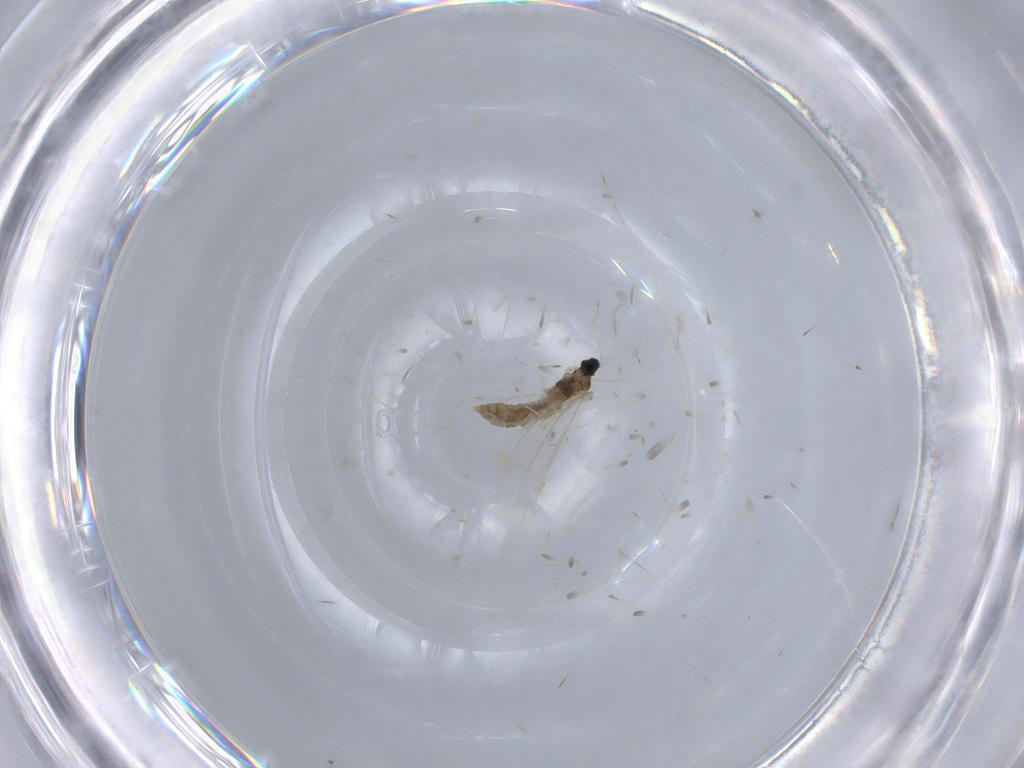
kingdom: Animalia
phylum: Arthropoda
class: Insecta
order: Diptera
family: Cecidomyiidae
